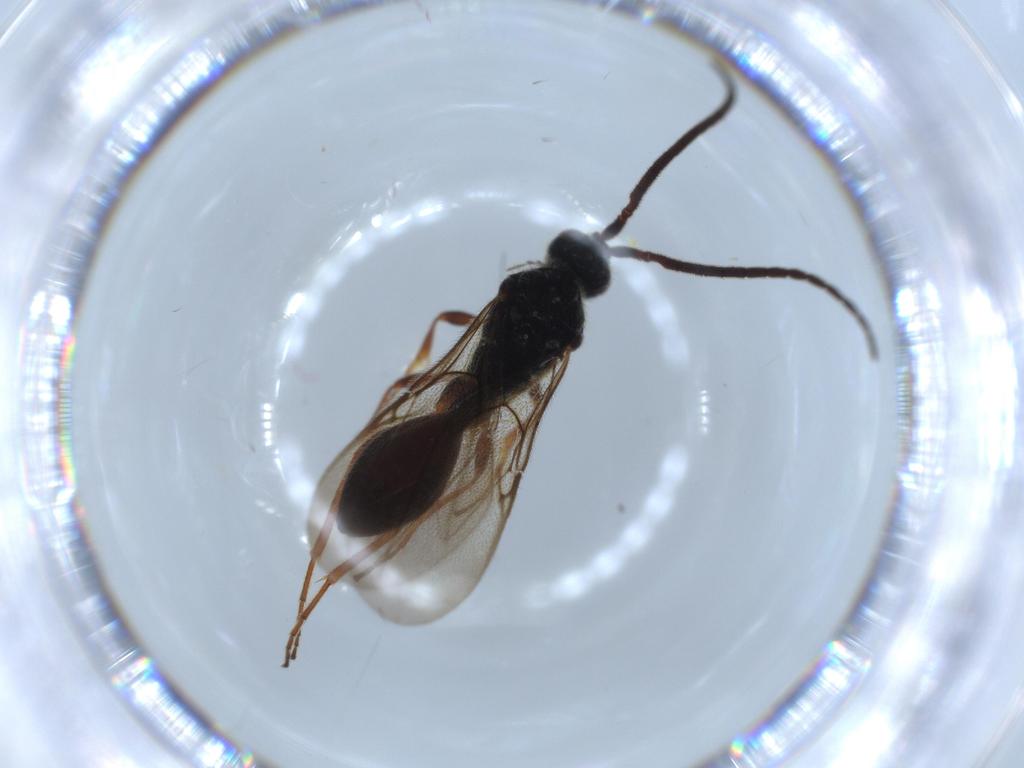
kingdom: Animalia
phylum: Arthropoda
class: Insecta
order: Hymenoptera
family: Diapriidae
